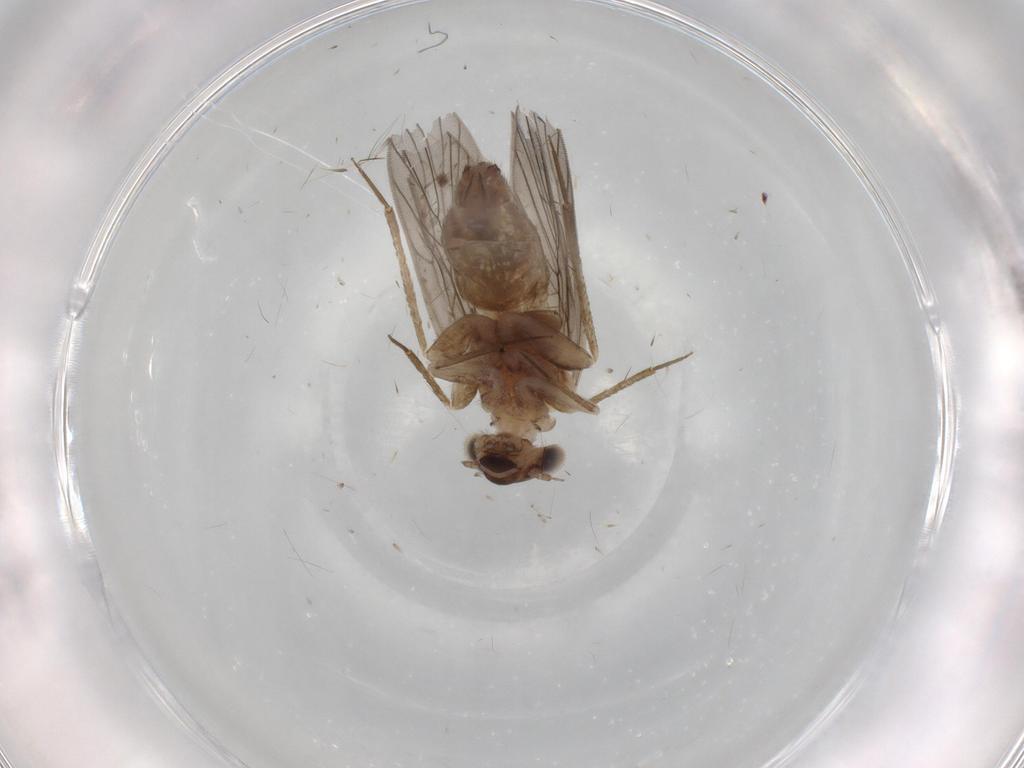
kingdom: Animalia
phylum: Arthropoda
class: Insecta
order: Psocodea
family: Lepidopsocidae
